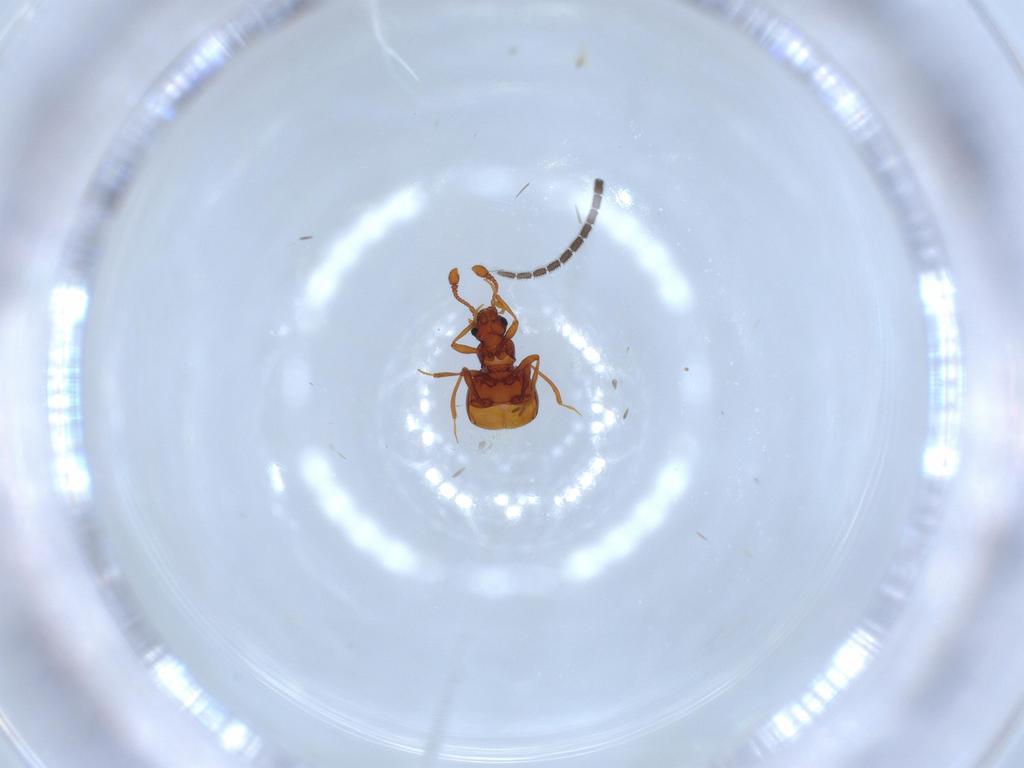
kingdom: Animalia
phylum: Arthropoda
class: Insecta
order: Coleoptera
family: Staphylinidae
